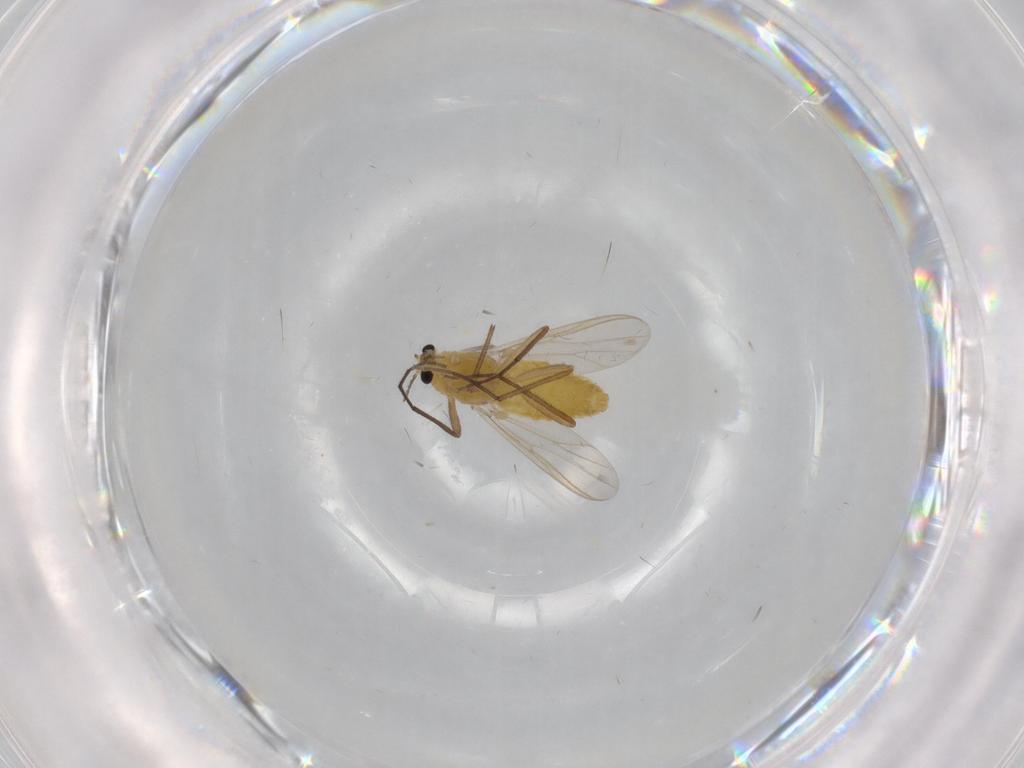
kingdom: Animalia
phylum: Arthropoda
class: Insecta
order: Diptera
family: Chironomidae
